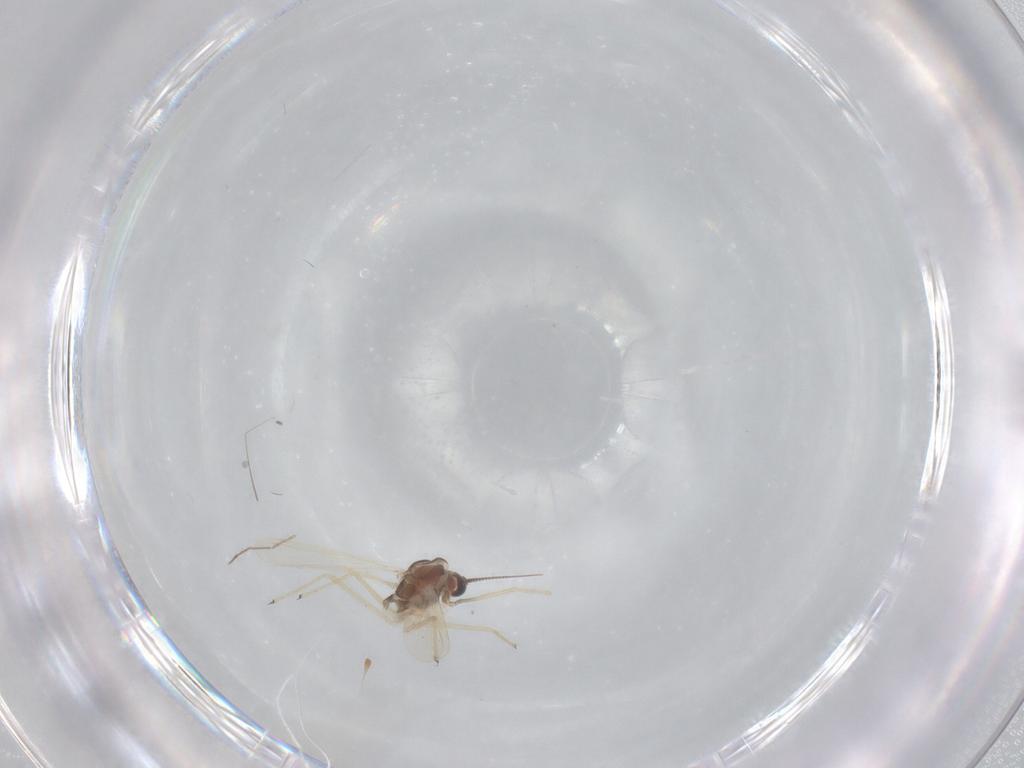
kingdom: Animalia
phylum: Arthropoda
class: Insecta
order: Diptera
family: Chironomidae
